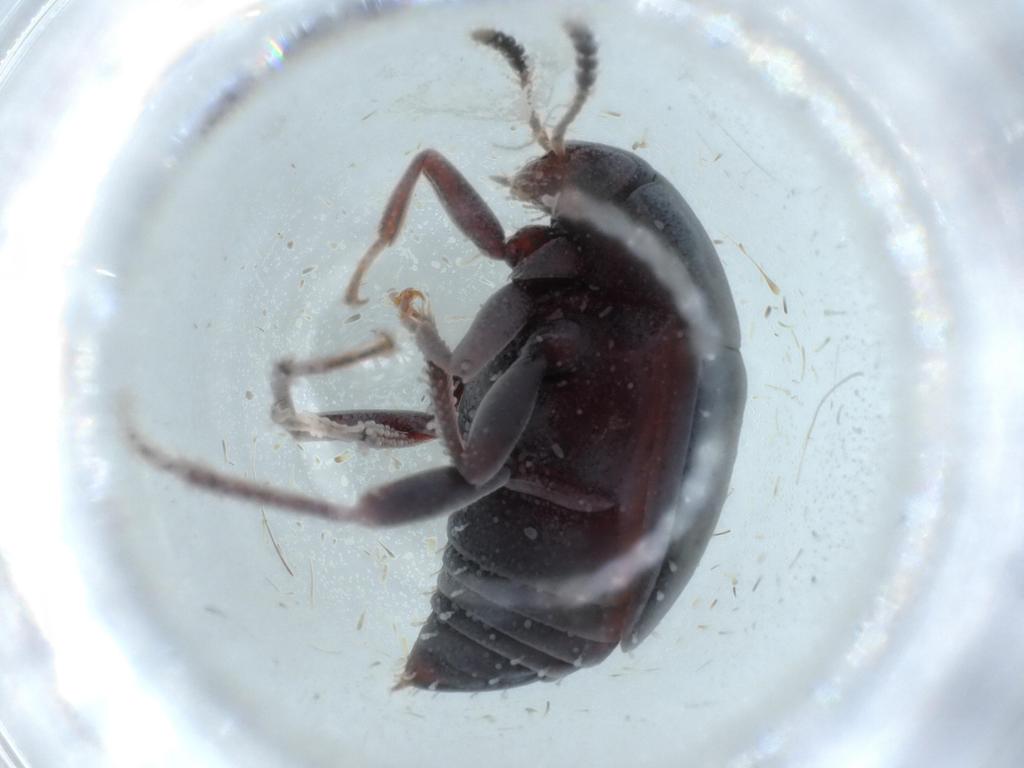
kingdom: Animalia
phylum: Arthropoda
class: Insecta
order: Coleoptera
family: Staphylinidae
